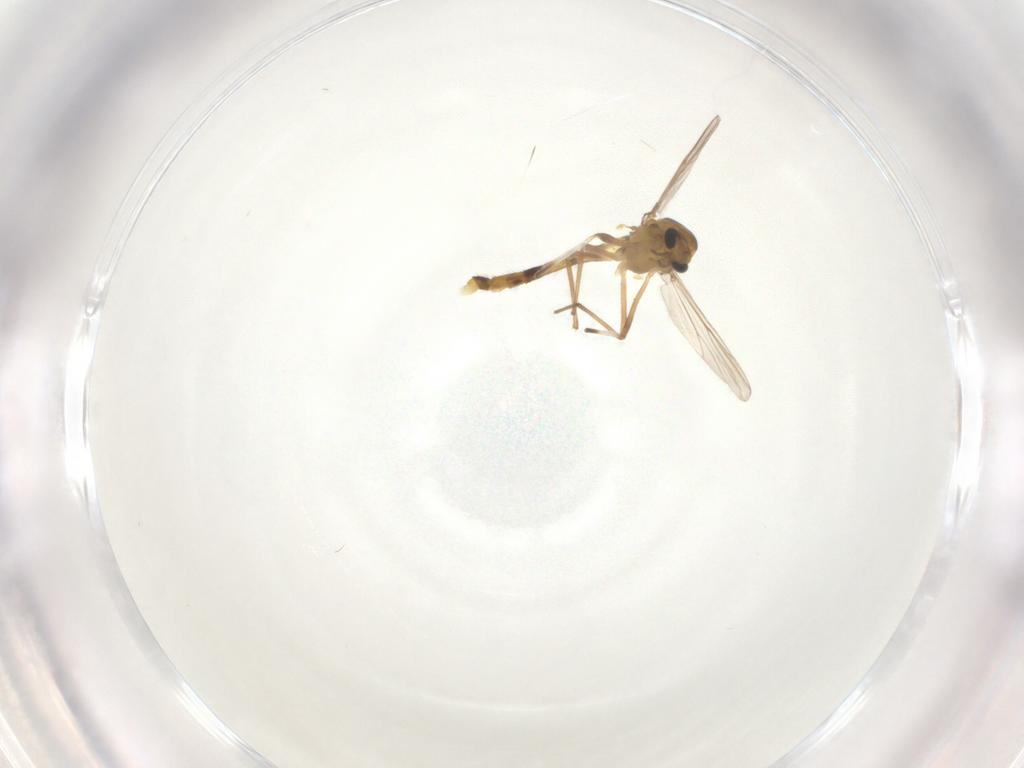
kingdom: Animalia
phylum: Arthropoda
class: Insecta
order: Diptera
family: Chironomidae
